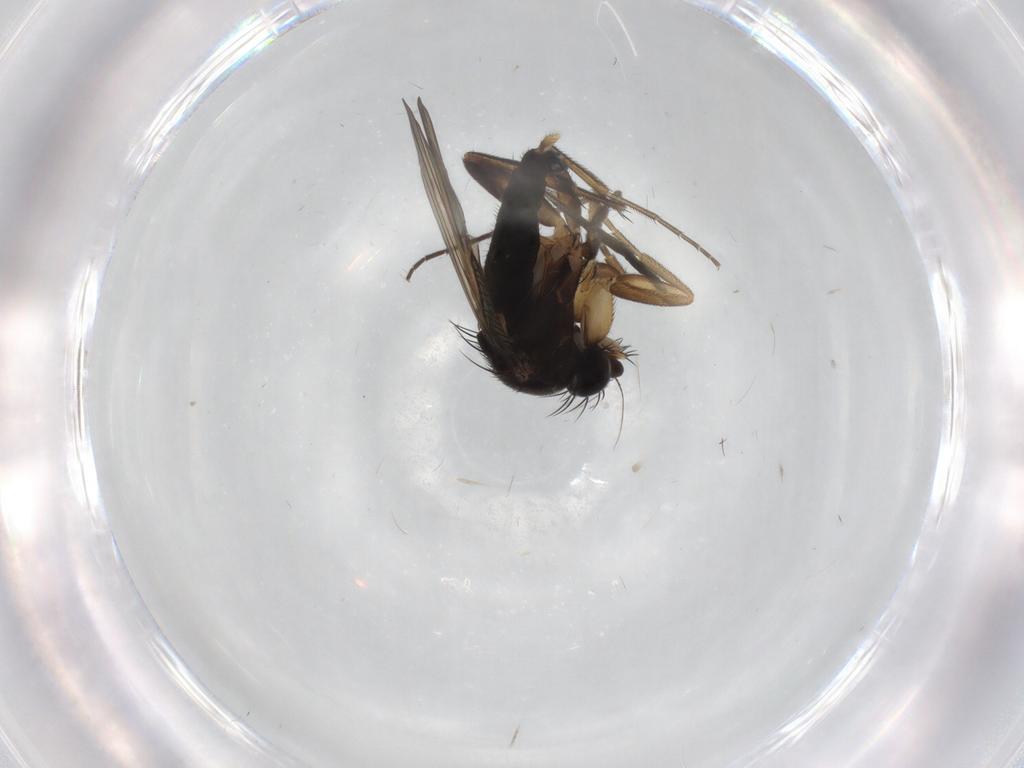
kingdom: Animalia
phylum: Arthropoda
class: Insecta
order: Diptera
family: Phoridae
